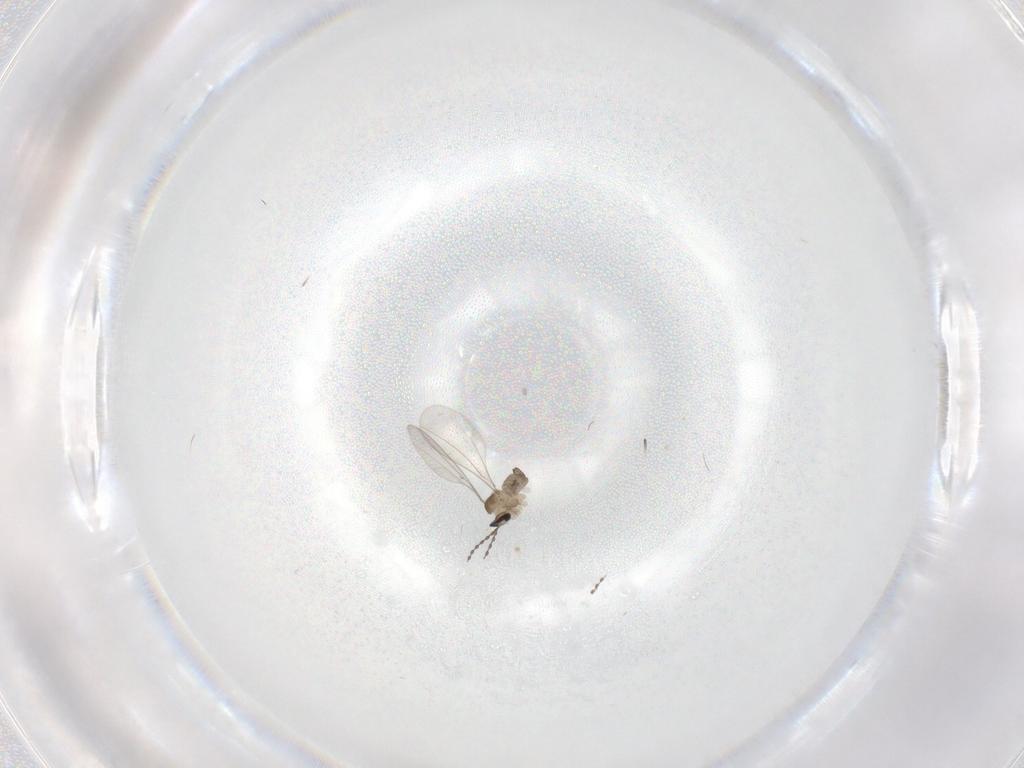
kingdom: Animalia
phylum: Arthropoda
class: Insecta
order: Diptera
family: Cecidomyiidae
